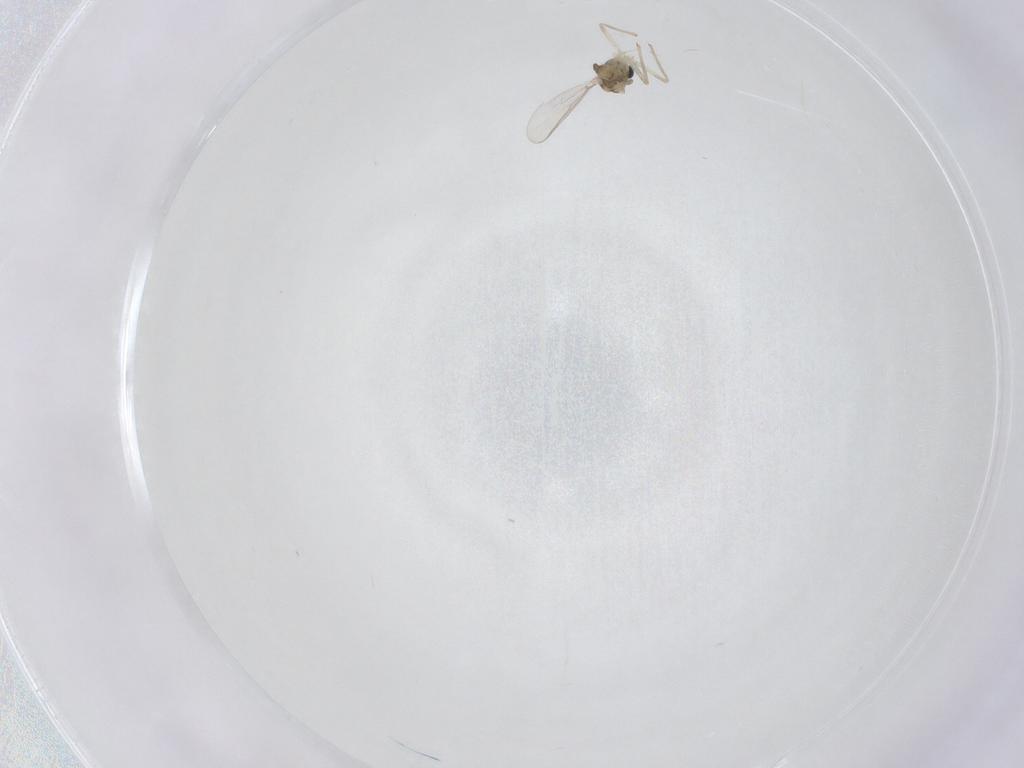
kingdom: Animalia
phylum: Arthropoda
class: Insecta
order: Diptera
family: Chironomidae
